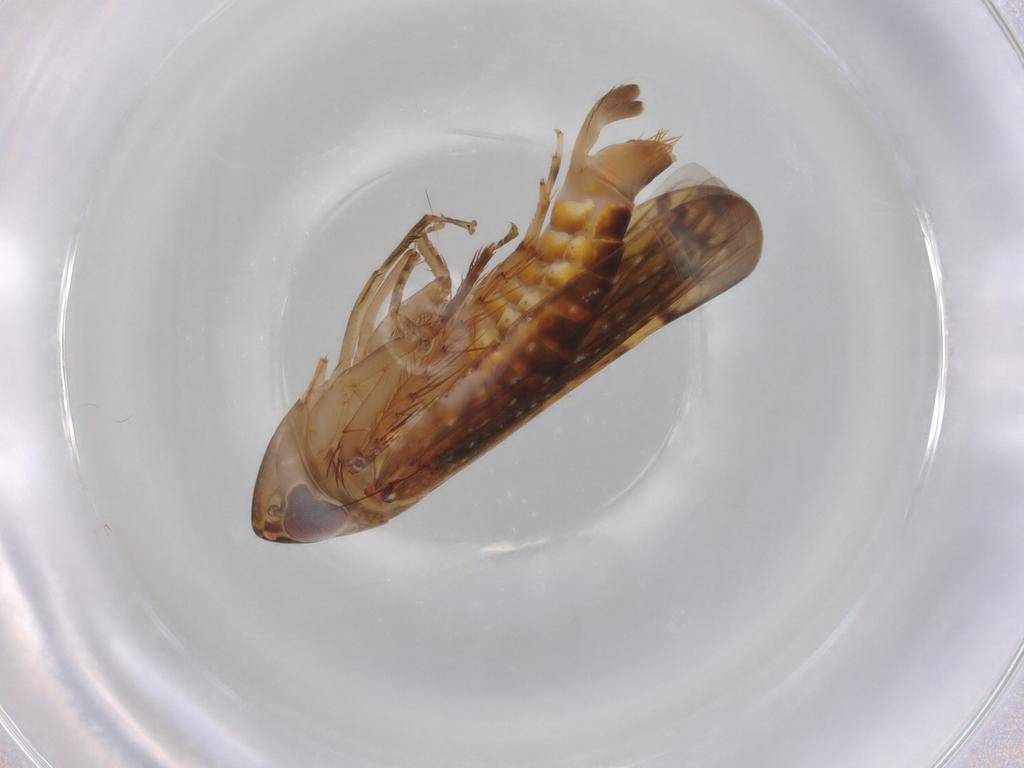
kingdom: Animalia
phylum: Arthropoda
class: Insecta
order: Hemiptera
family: Cicadellidae
